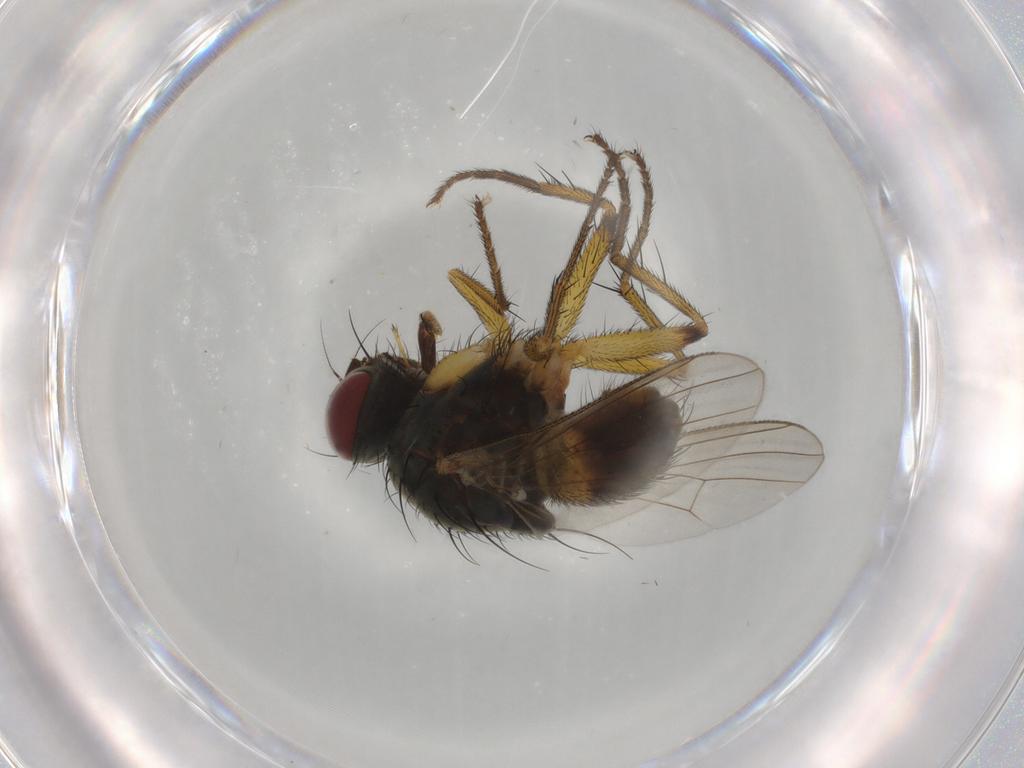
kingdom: Animalia
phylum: Arthropoda
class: Insecta
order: Diptera
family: Muscidae
